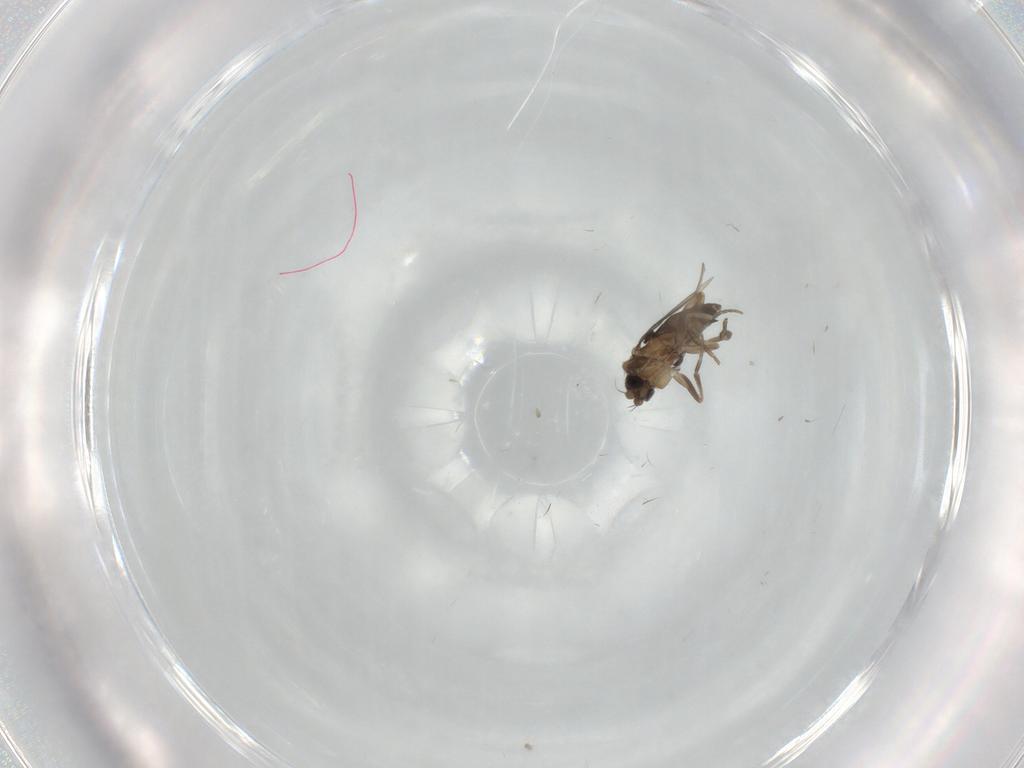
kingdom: Animalia
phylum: Arthropoda
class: Insecta
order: Diptera
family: Phoridae
